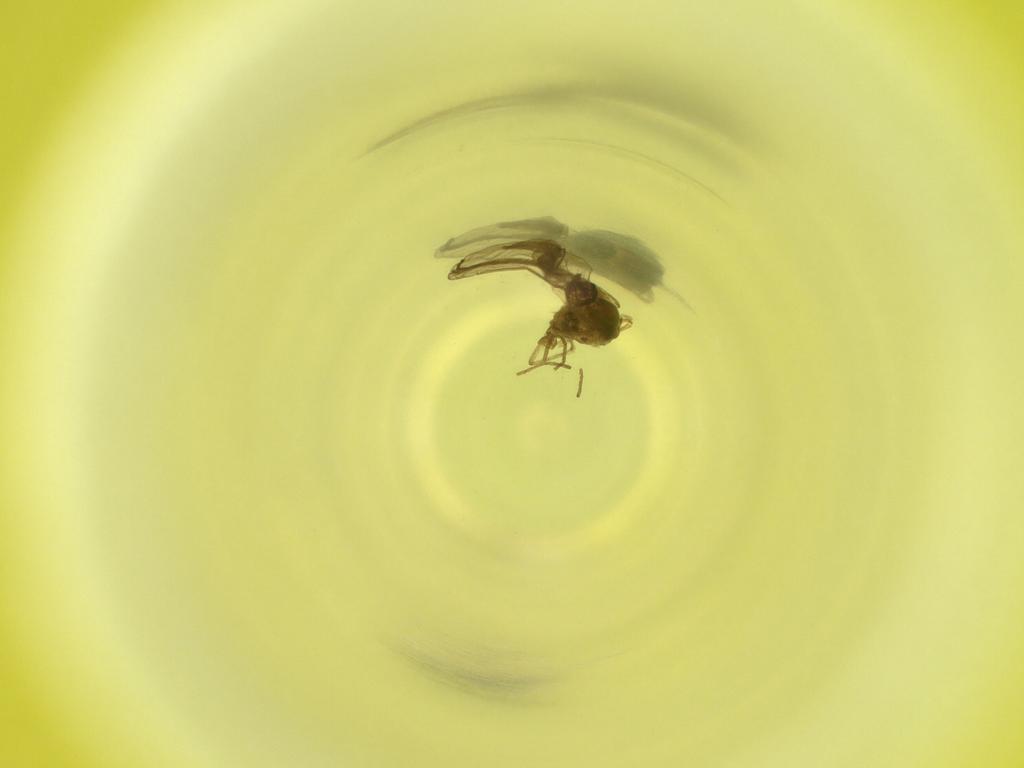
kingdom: Animalia
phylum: Arthropoda
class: Insecta
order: Diptera
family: Cecidomyiidae
